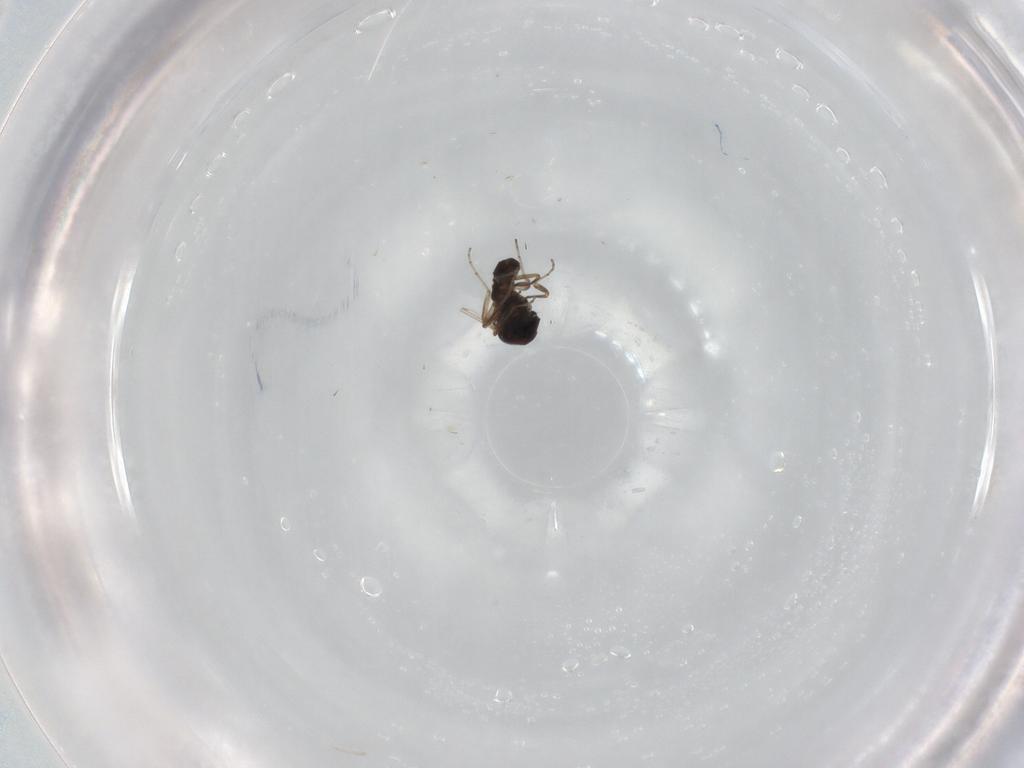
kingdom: Animalia
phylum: Arthropoda
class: Insecta
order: Diptera
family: Ceratopogonidae
